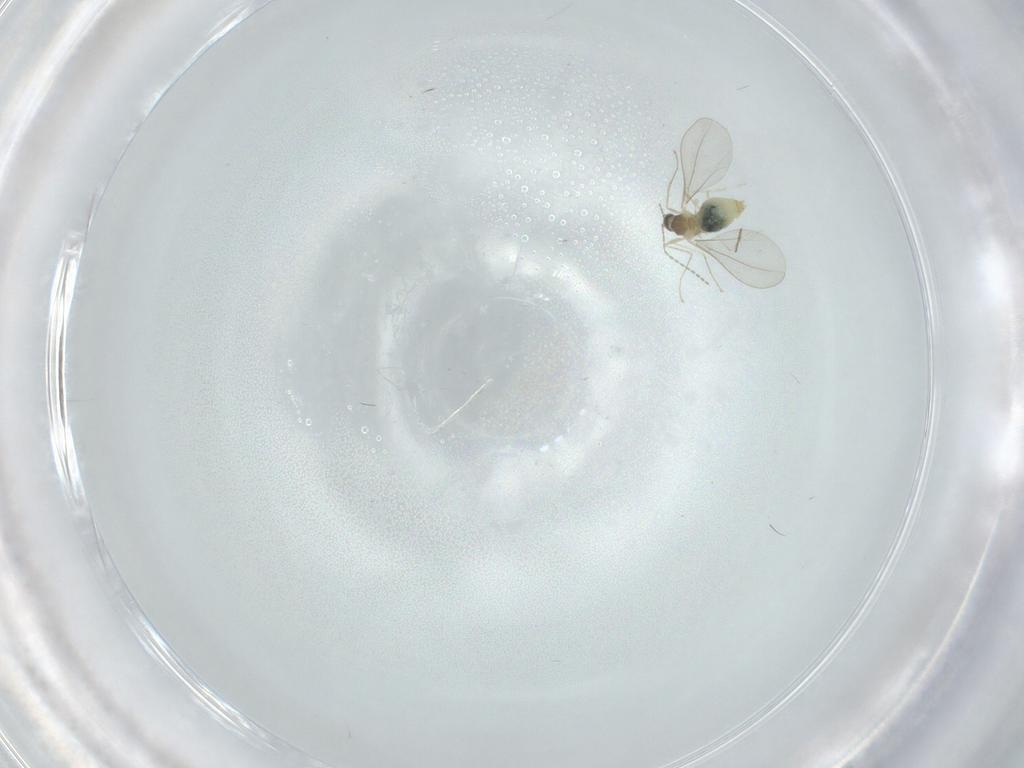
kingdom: Animalia
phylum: Arthropoda
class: Insecta
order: Diptera
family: Cecidomyiidae
